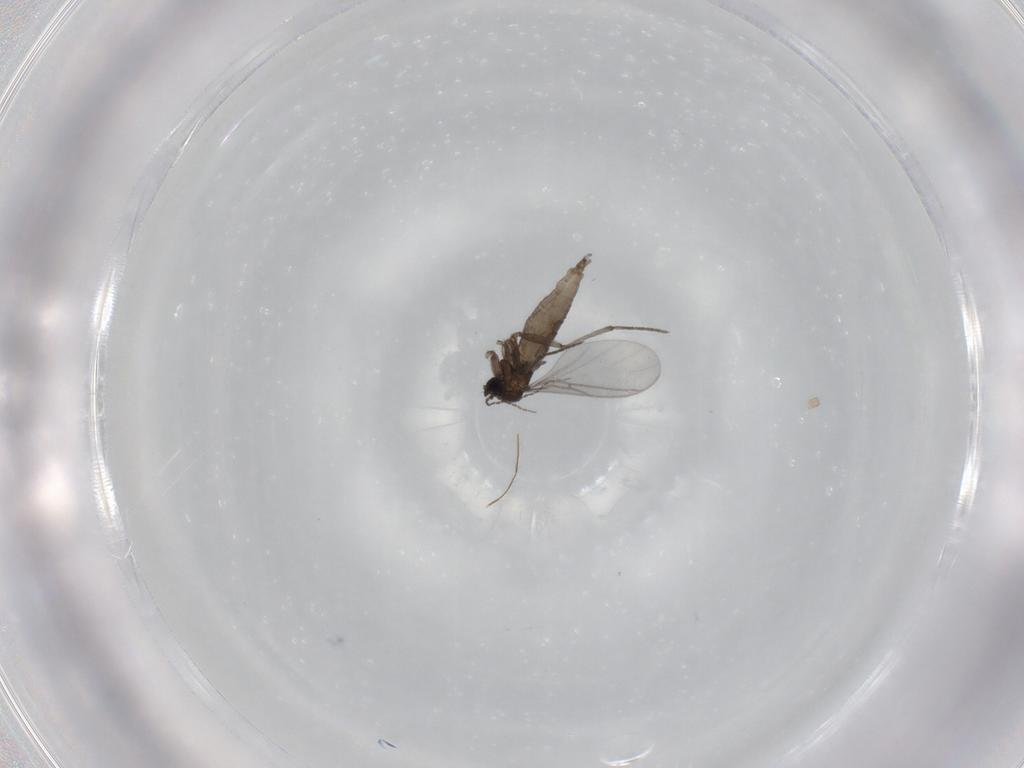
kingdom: Animalia
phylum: Arthropoda
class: Insecta
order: Diptera
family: Sciaridae
